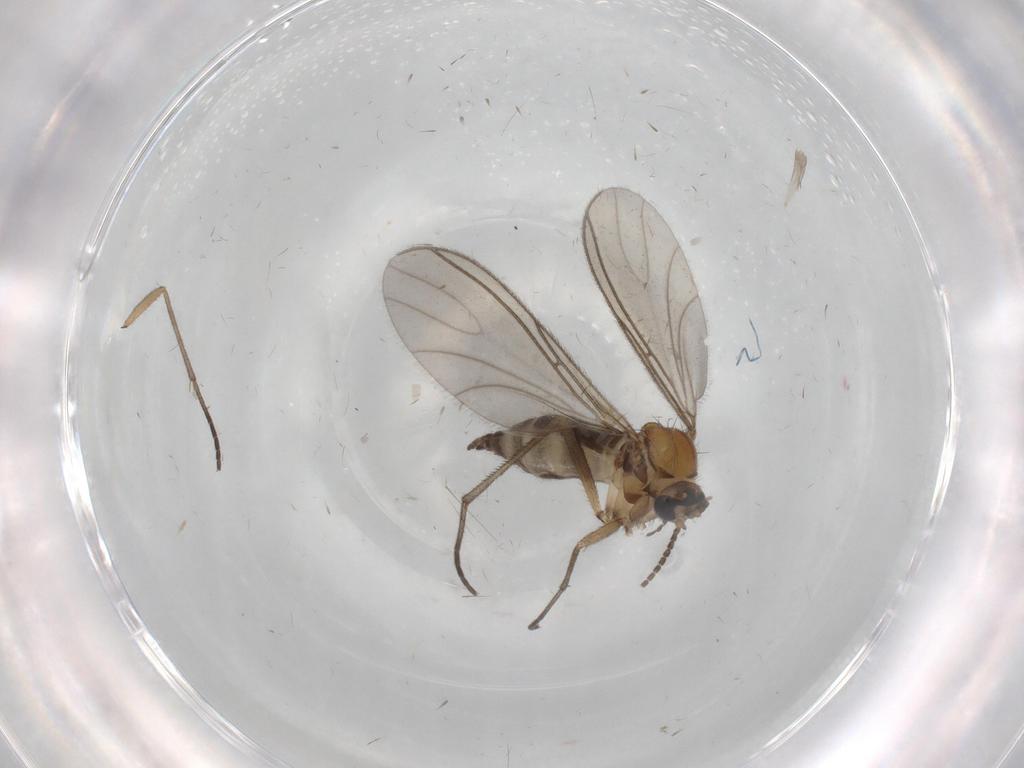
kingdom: Animalia
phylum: Arthropoda
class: Insecta
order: Diptera
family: Sciaridae
